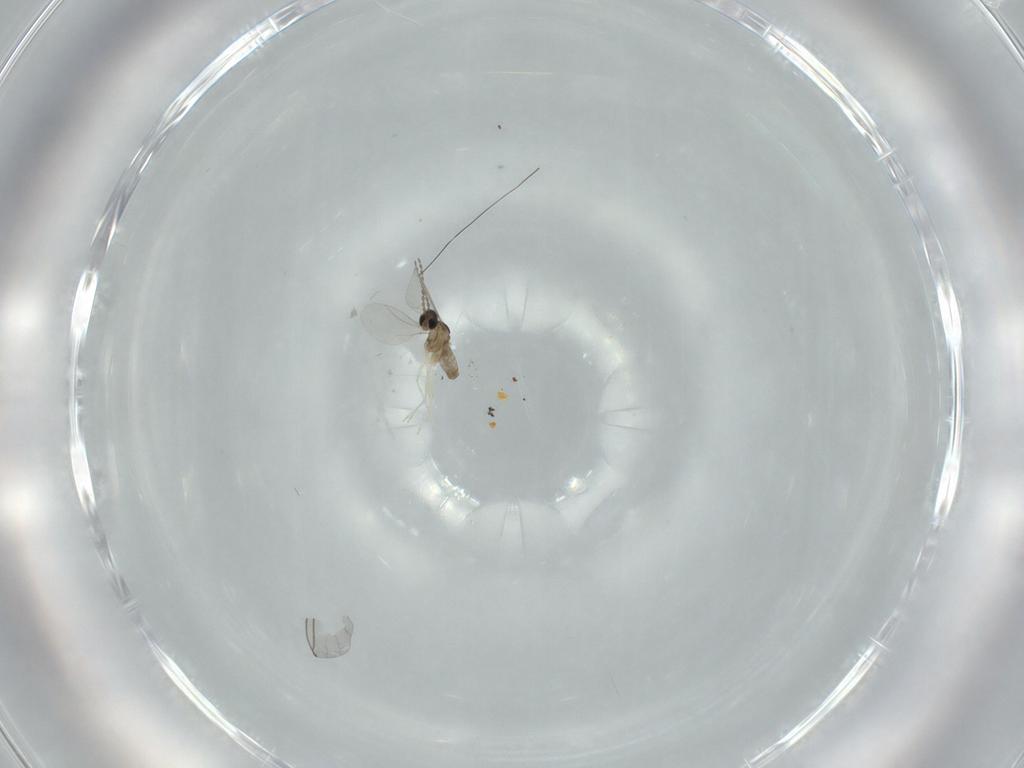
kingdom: Animalia
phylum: Arthropoda
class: Insecta
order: Diptera
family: Cecidomyiidae
